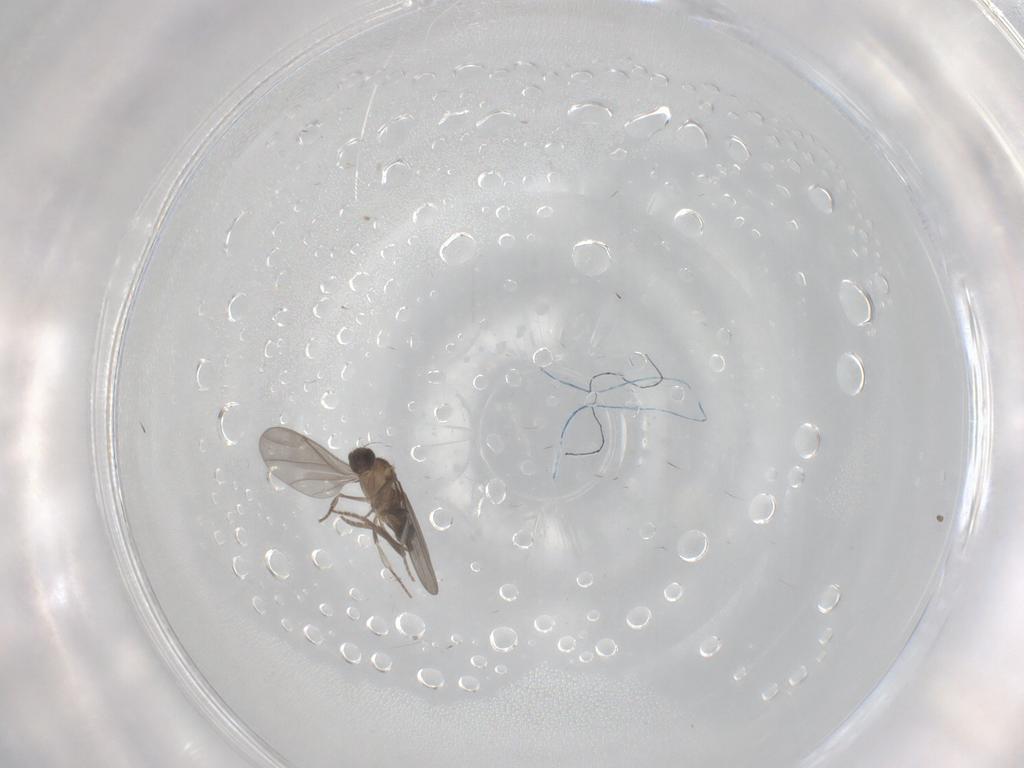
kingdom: Animalia
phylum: Arthropoda
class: Insecta
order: Diptera
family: Phoridae
